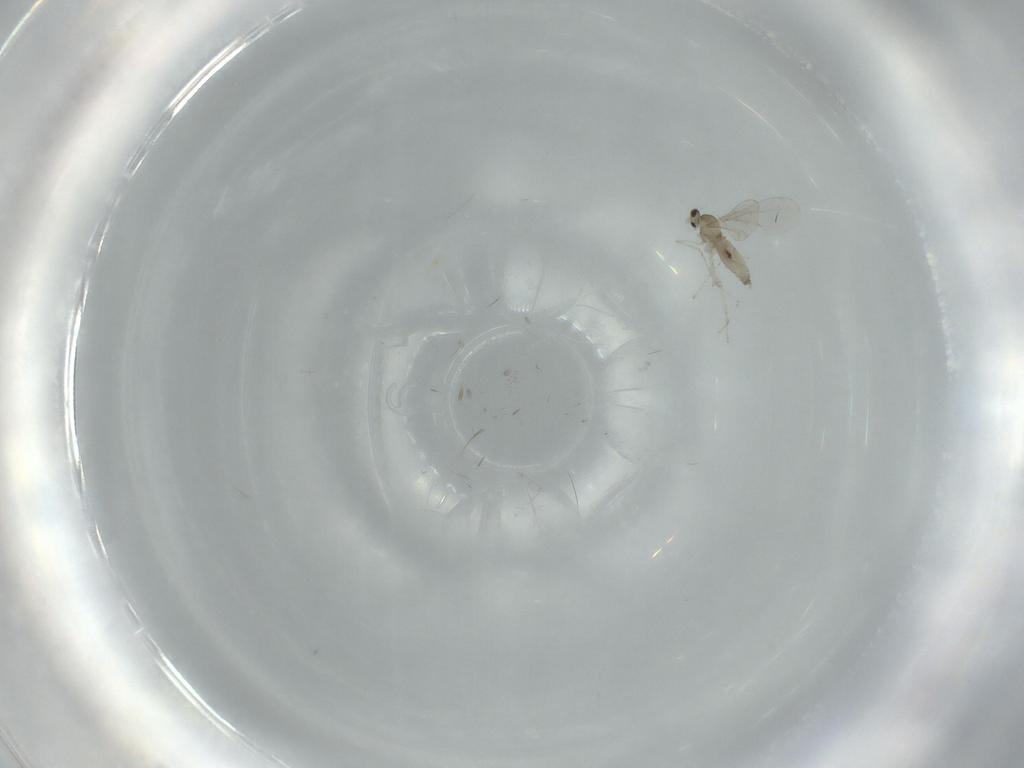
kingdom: Animalia
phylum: Arthropoda
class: Insecta
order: Diptera
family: Cecidomyiidae
